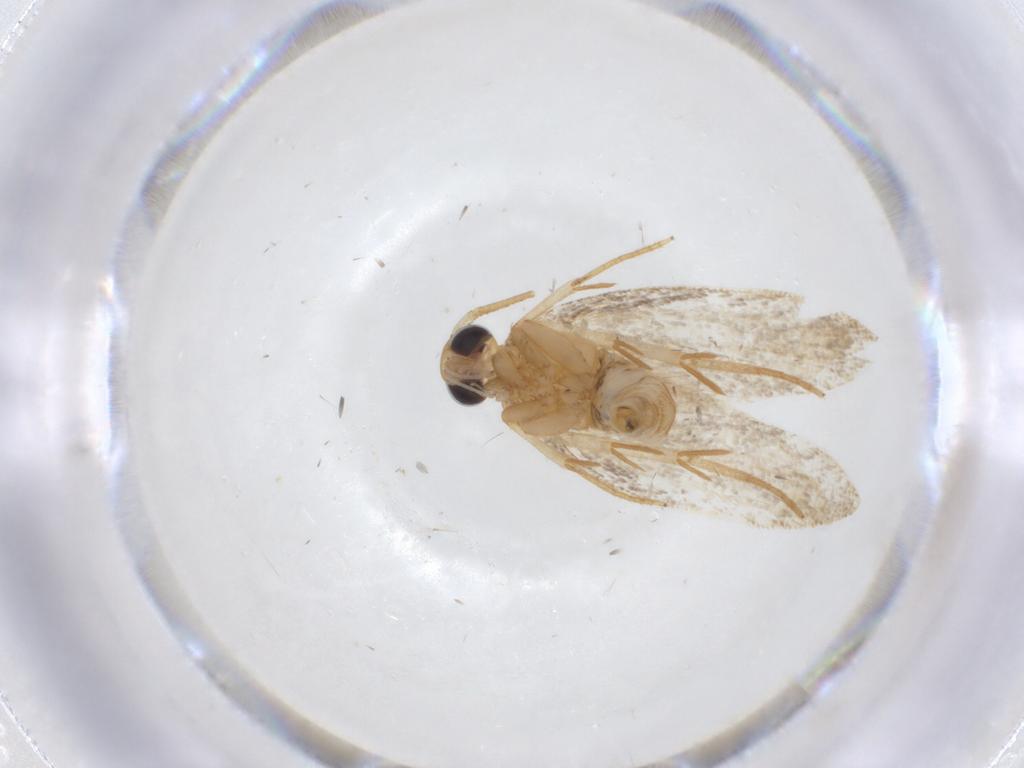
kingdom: Animalia
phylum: Arthropoda
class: Insecta
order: Lepidoptera
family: Oecophoridae
